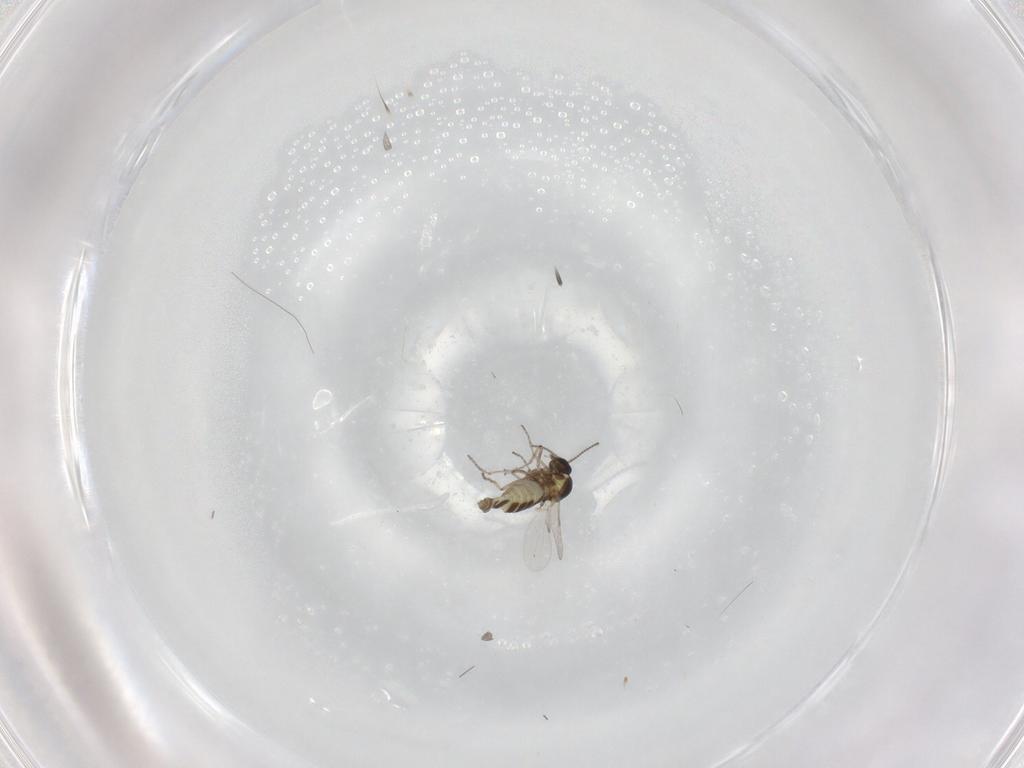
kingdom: Animalia
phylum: Arthropoda
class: Insecta
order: Diptera
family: Ceratopogonidae
